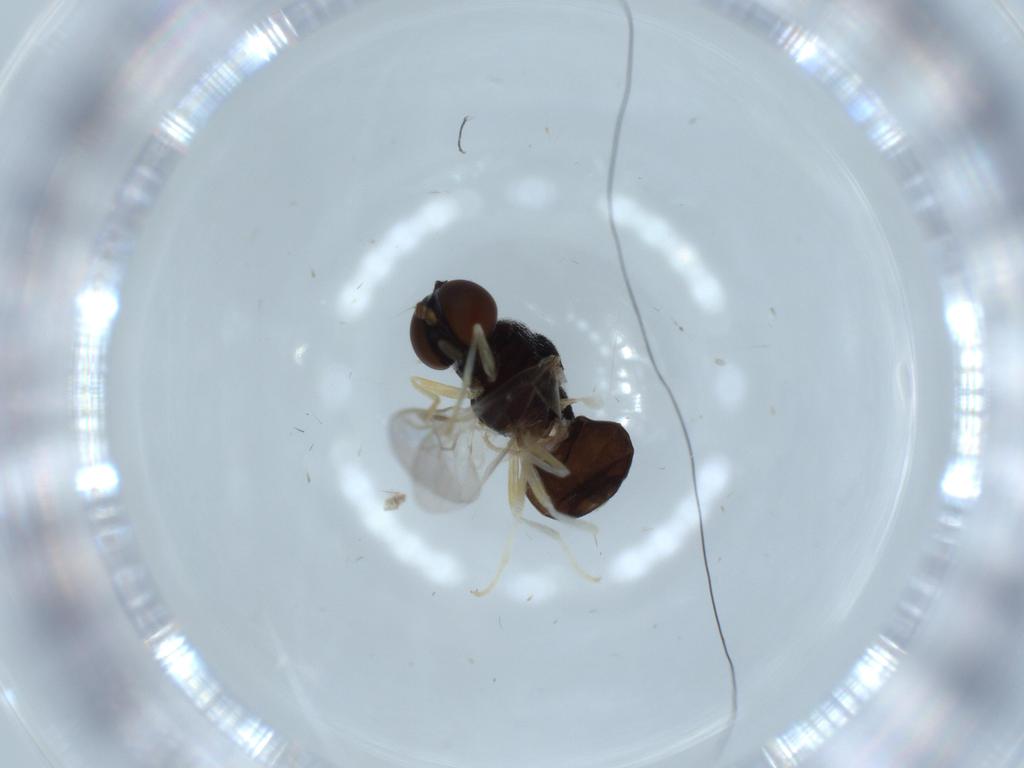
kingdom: Animalia
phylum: Arthropoda
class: Insecta
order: Diptera
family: Stratiomyidae
